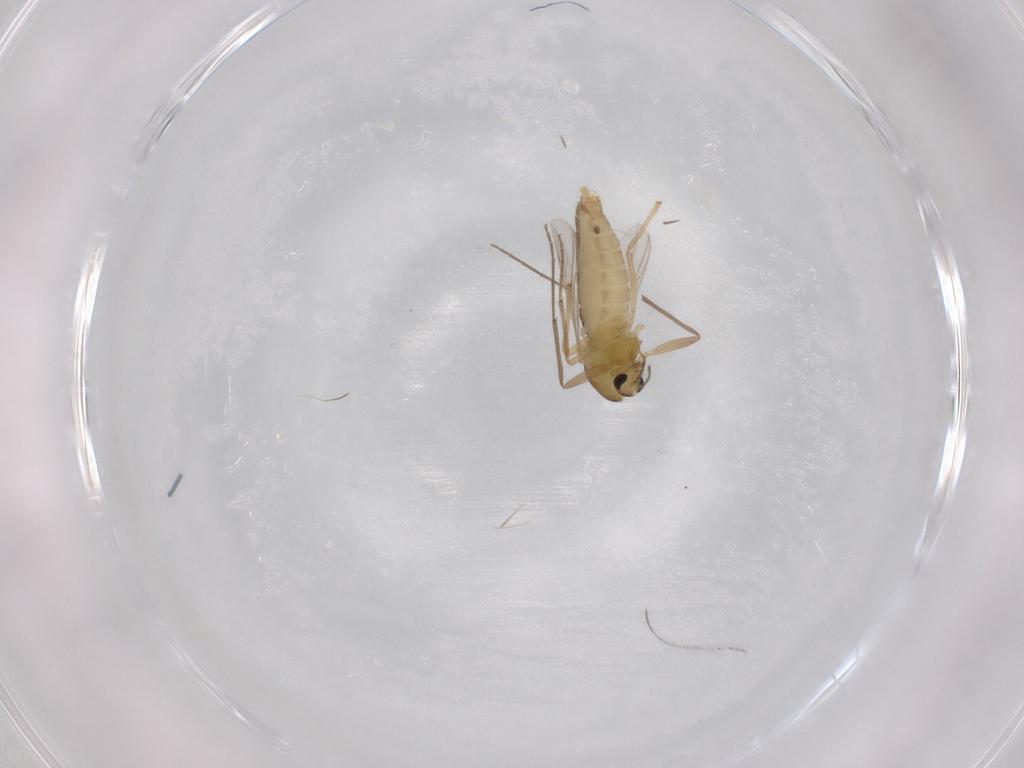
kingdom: Animalia
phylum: Arthropoda
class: Insecta
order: Diptera
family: Chironomidae
